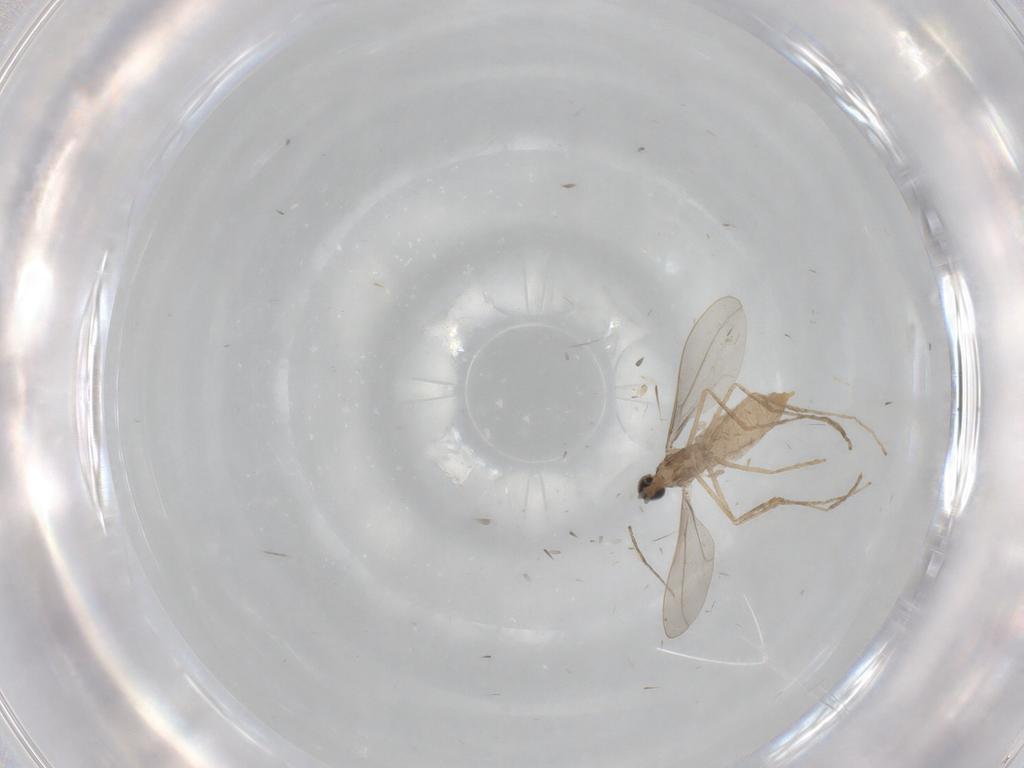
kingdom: Animalia
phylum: Arthropoda
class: Insecta
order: Diptera
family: Cecidomyiidae
